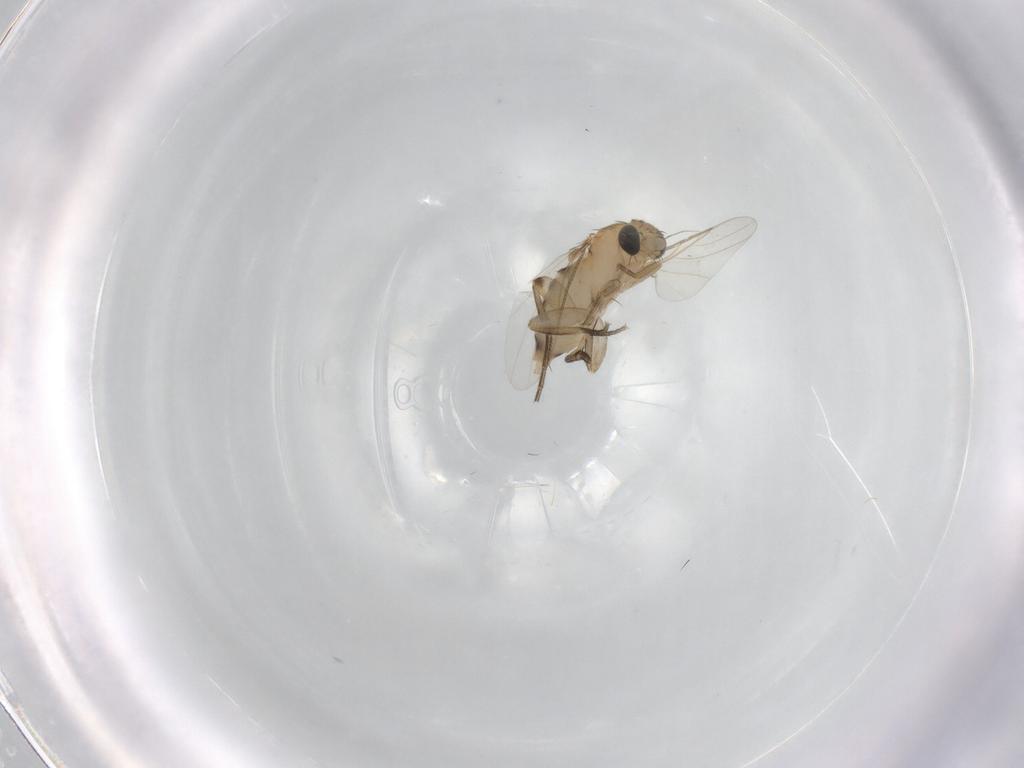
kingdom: Animalia
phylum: Arthropoda
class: Insecta
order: Diptera
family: Cecidomyiidae
